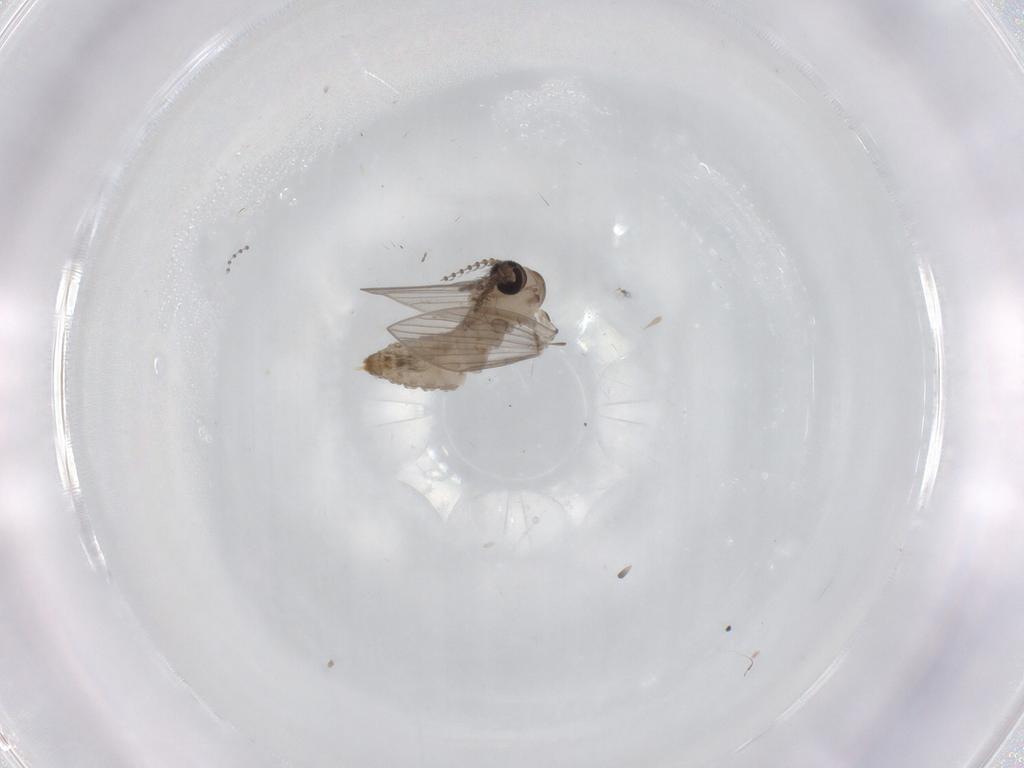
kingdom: Animalia
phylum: Arthropoda
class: Insecta
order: Diptera
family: Psychodidae
